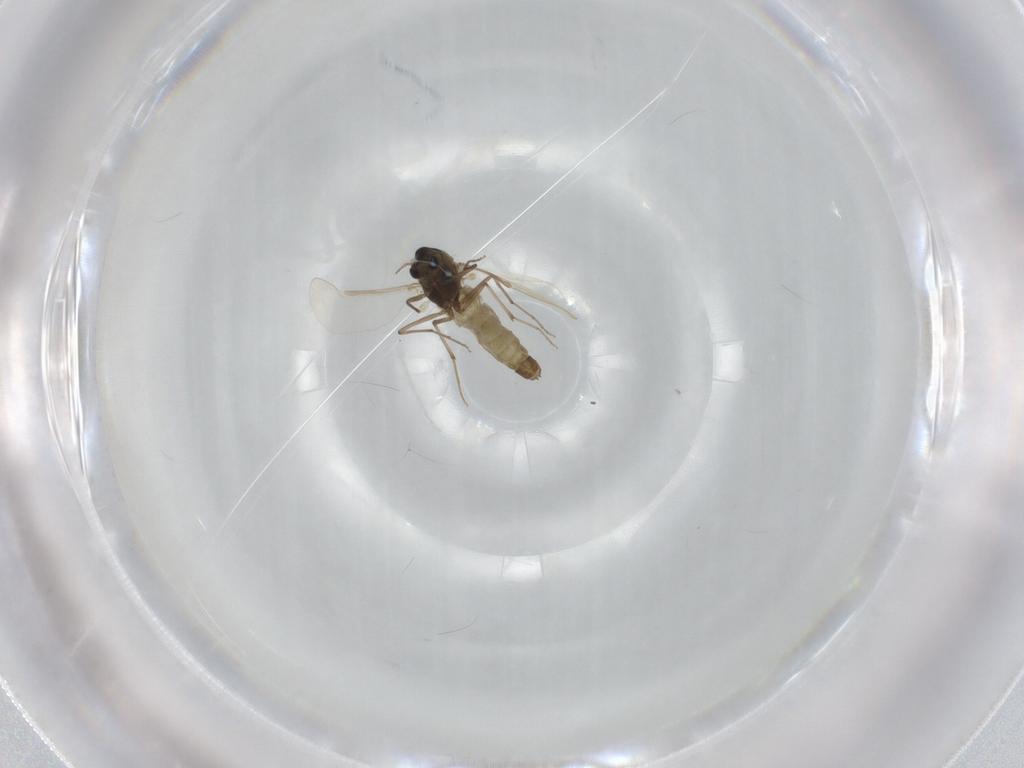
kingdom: Animalia
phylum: Arthropoda
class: Insecta
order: Diptera
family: Chironomidae
